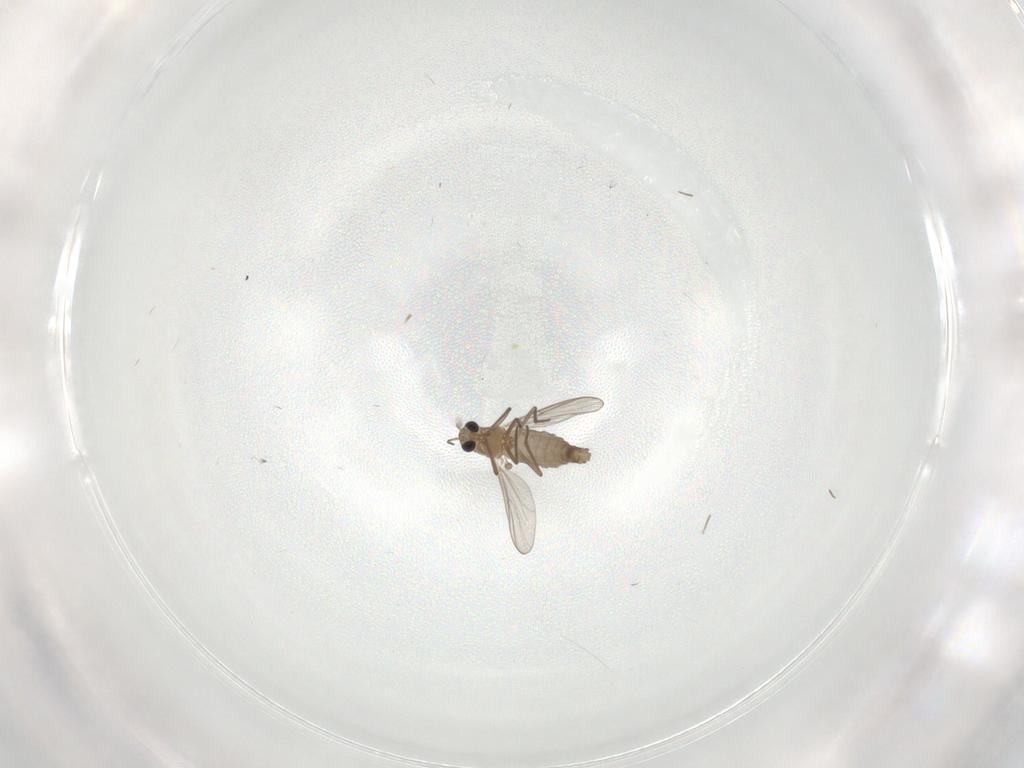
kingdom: Animalia
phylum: Arthropoda
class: Insecta
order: Diptera
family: Chironomidae
